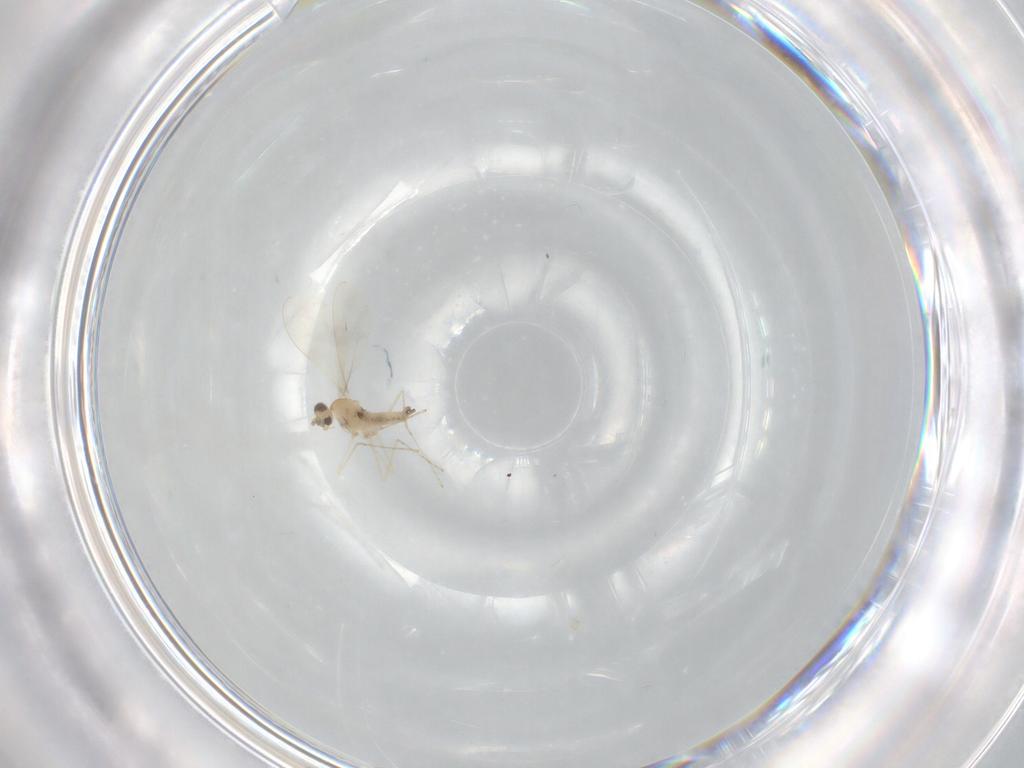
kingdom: Animalia
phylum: Arthropoda
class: Insecta
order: Diptera
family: Cecidomyiidae
